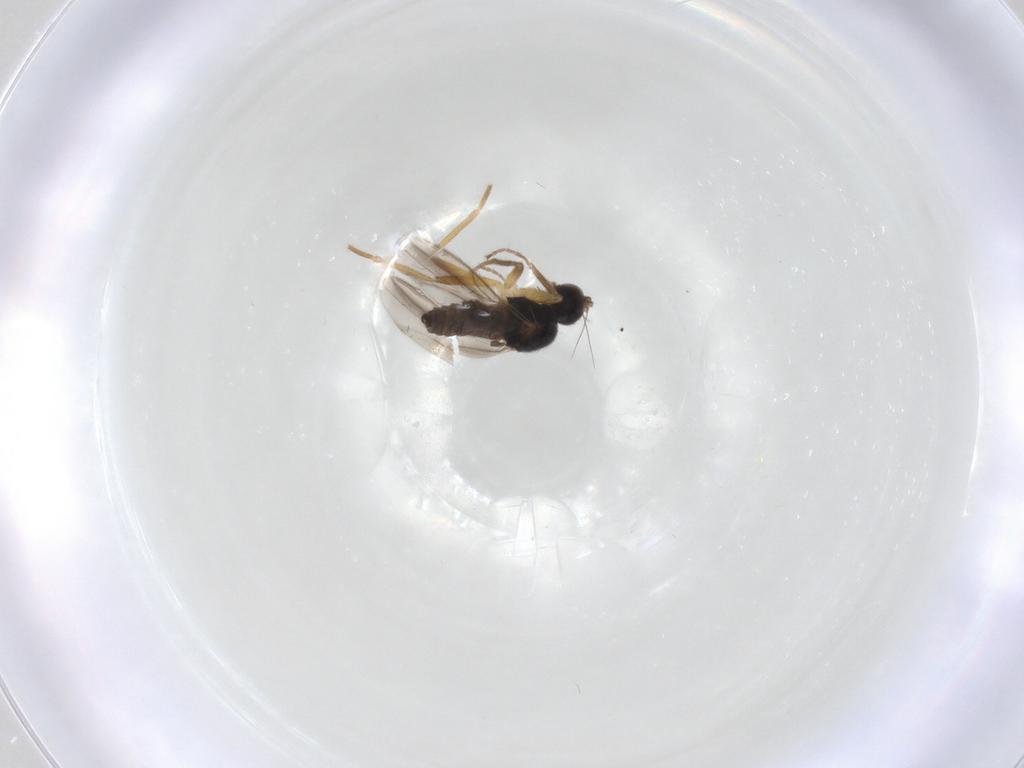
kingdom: Animalia
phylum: Arthropoda
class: Insecta
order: Diptera
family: Hybotidae
